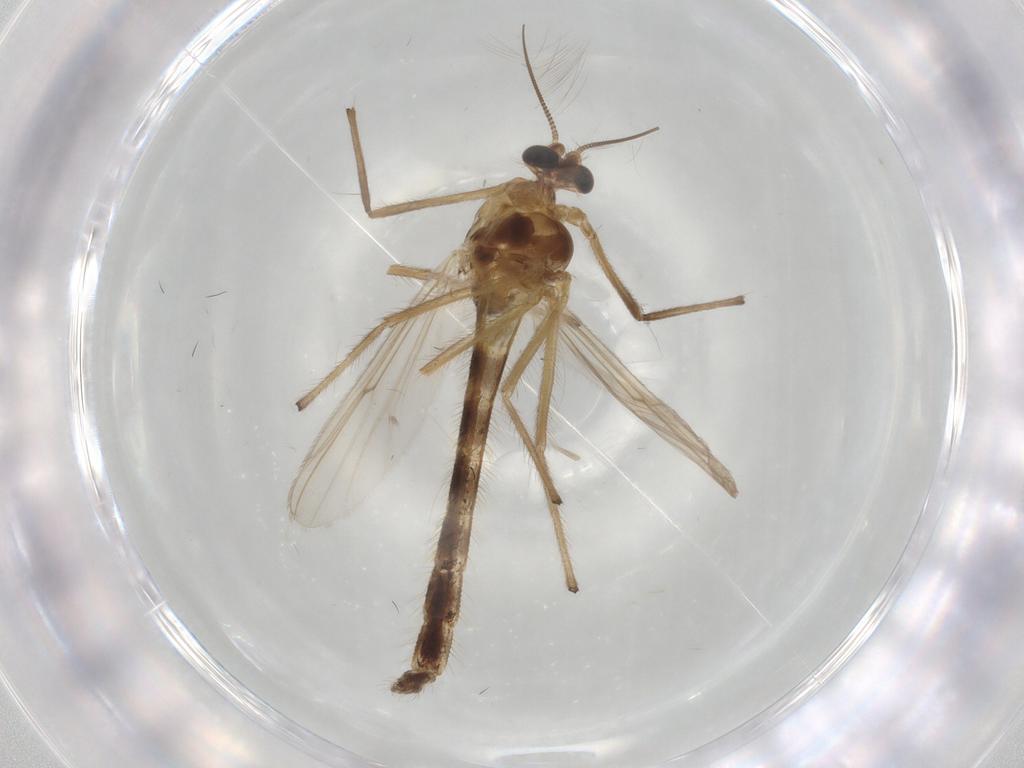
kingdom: Animalia
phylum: Arthropoda
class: Insecta
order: Diptera
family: Chironomidae
